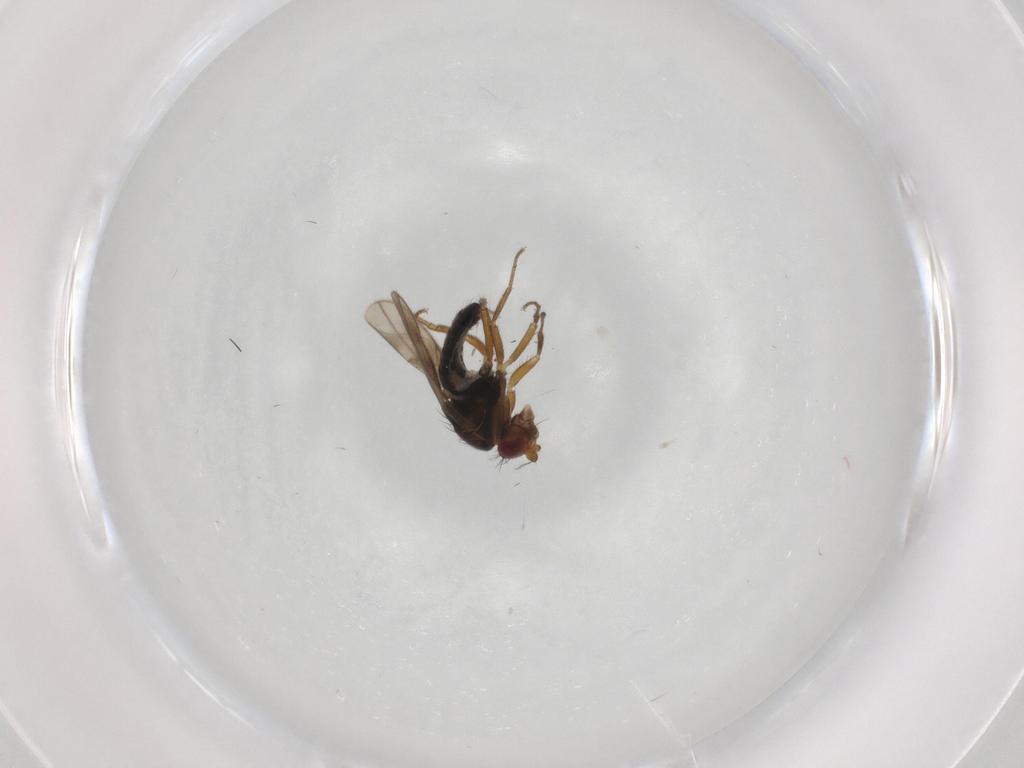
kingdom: Animalia
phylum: Arthropoda
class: Insecta
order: Diptera
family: Sphaeroceridae
